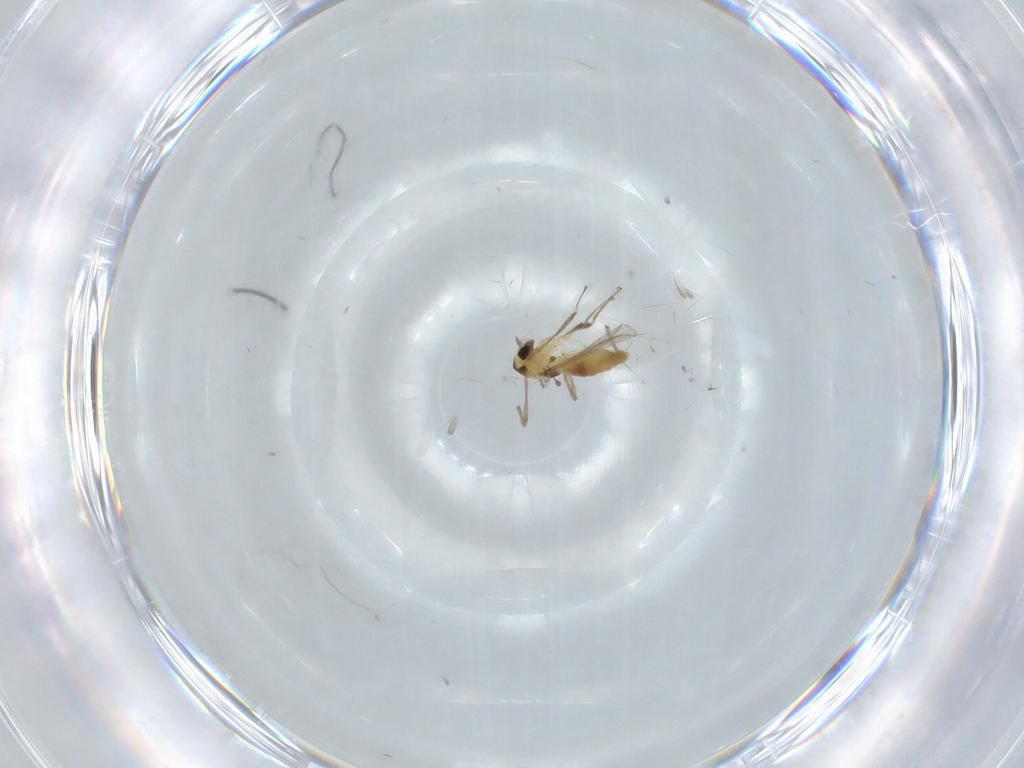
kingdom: Animalia
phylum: Arthropoda
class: Insecta
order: Diptera
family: Chironomidae
